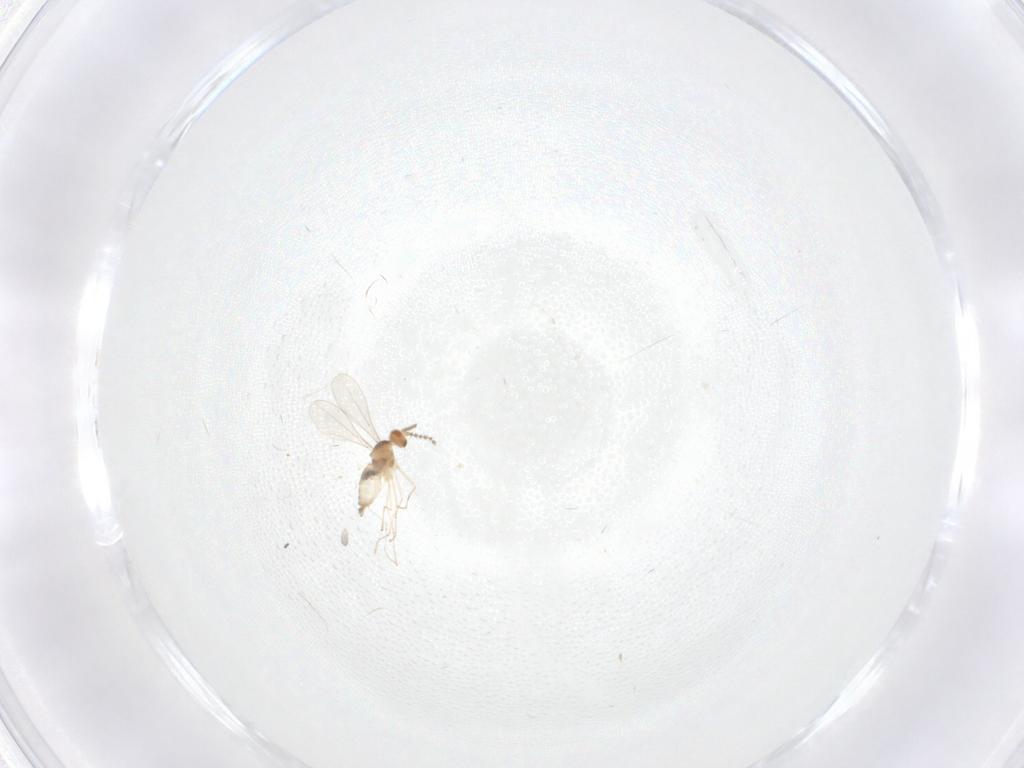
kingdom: Animalia
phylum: Arthropoda
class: Insecta
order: Diptera
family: Cecidomyiidae
